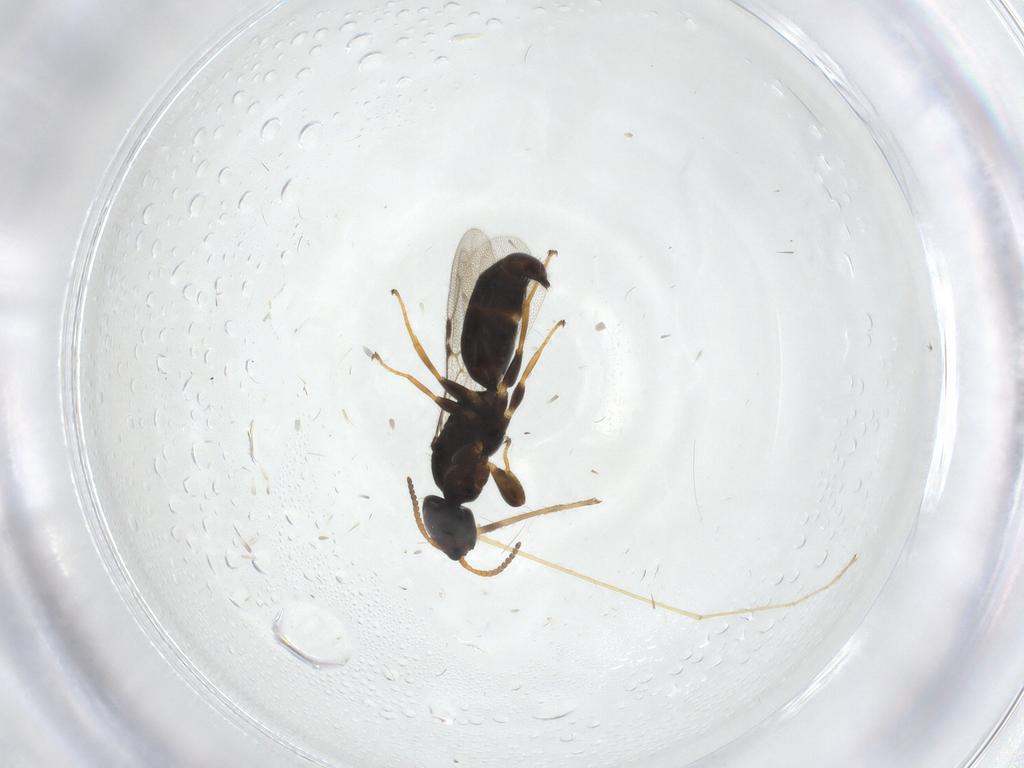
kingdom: Animalia
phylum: Arthropoda
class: Insecta
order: Hymenoptera
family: Bethylidae
